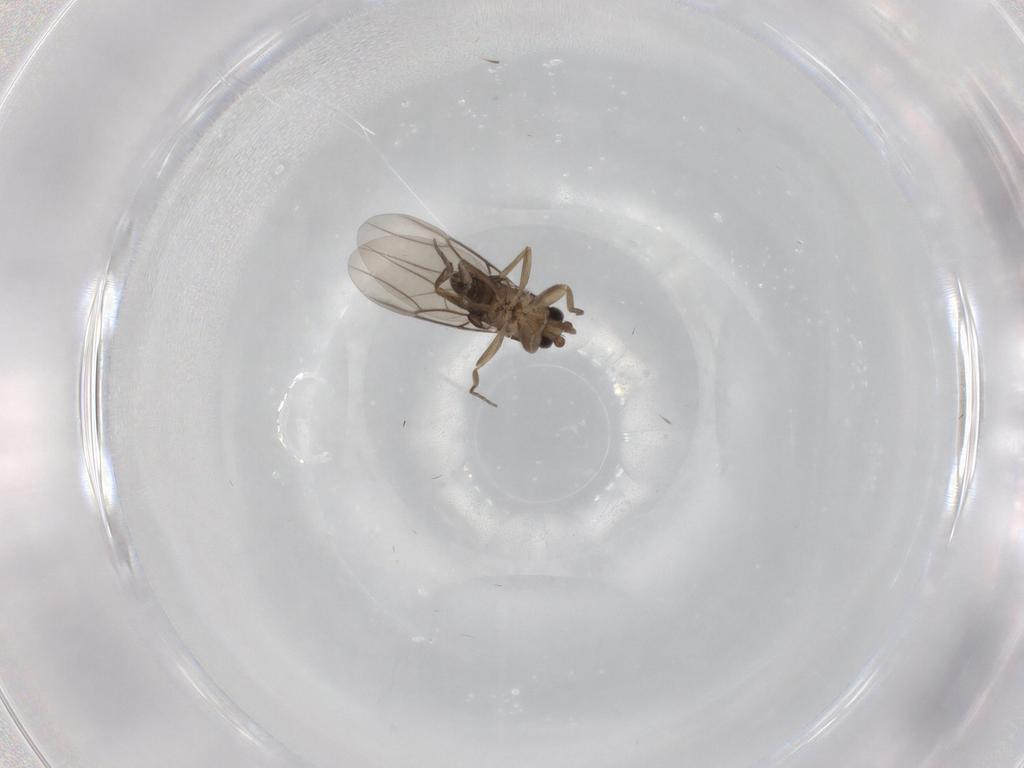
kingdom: Animalia
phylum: Arthropoda
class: Insecta
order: Diptera
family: Phoridae
